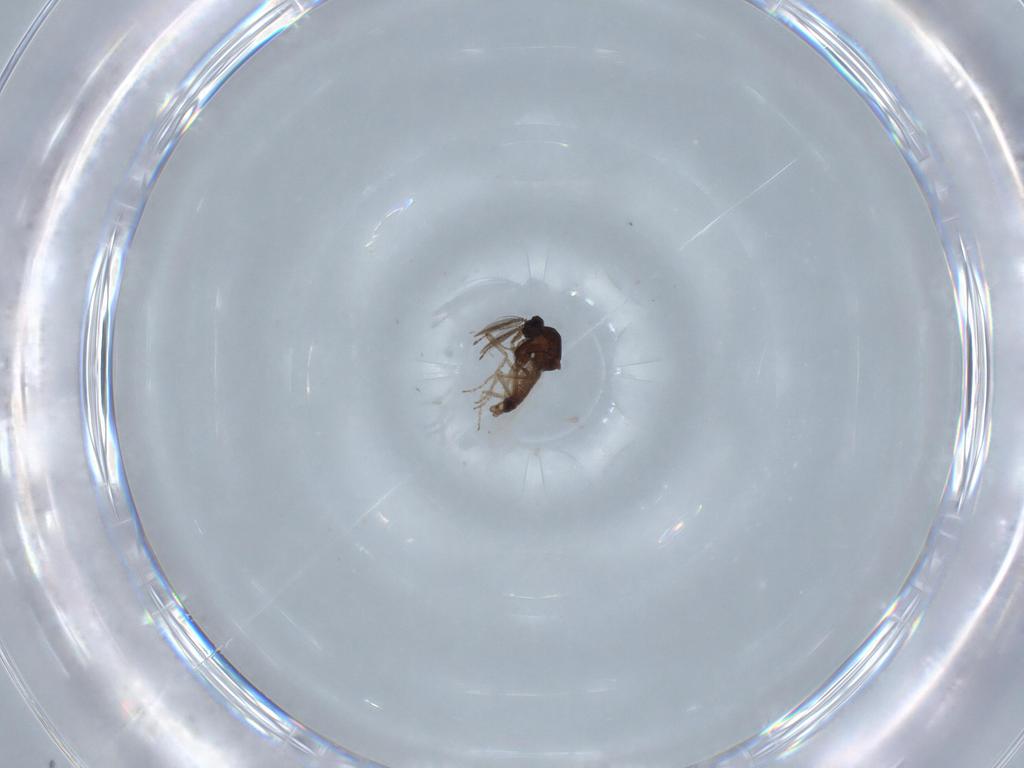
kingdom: Animalia
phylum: Arthropoda
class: Insecta
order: Diptera
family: Ceratopogonidae
